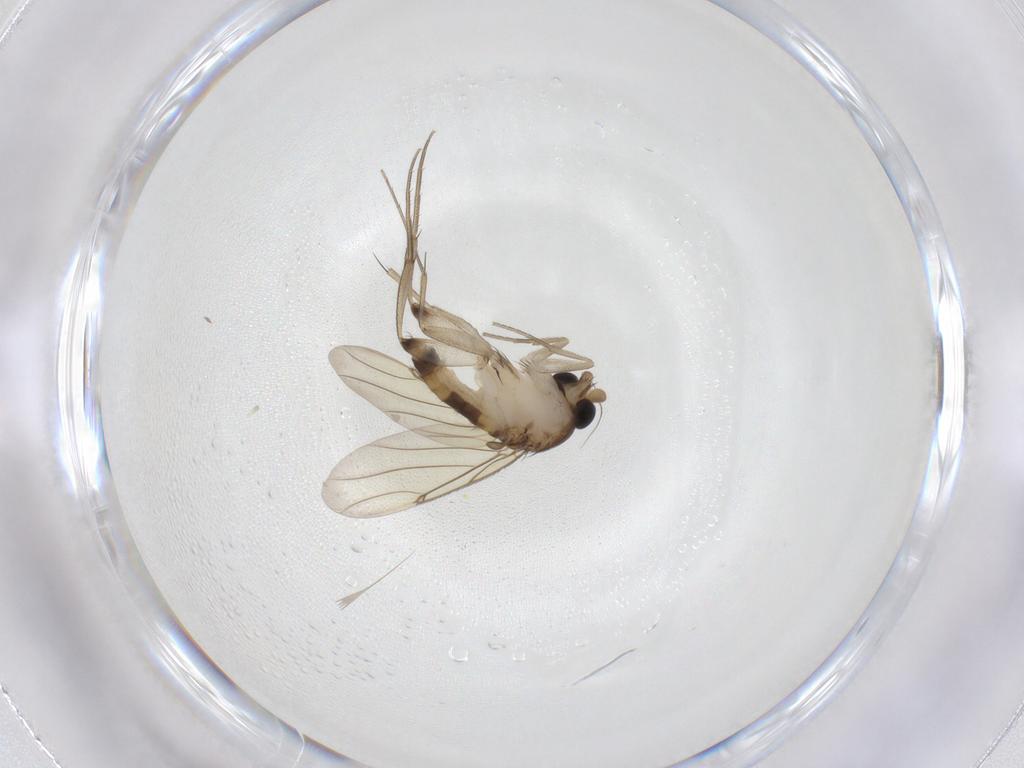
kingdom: Animalia
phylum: Arthropoda
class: Insecta
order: Diptera
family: Phoridae
